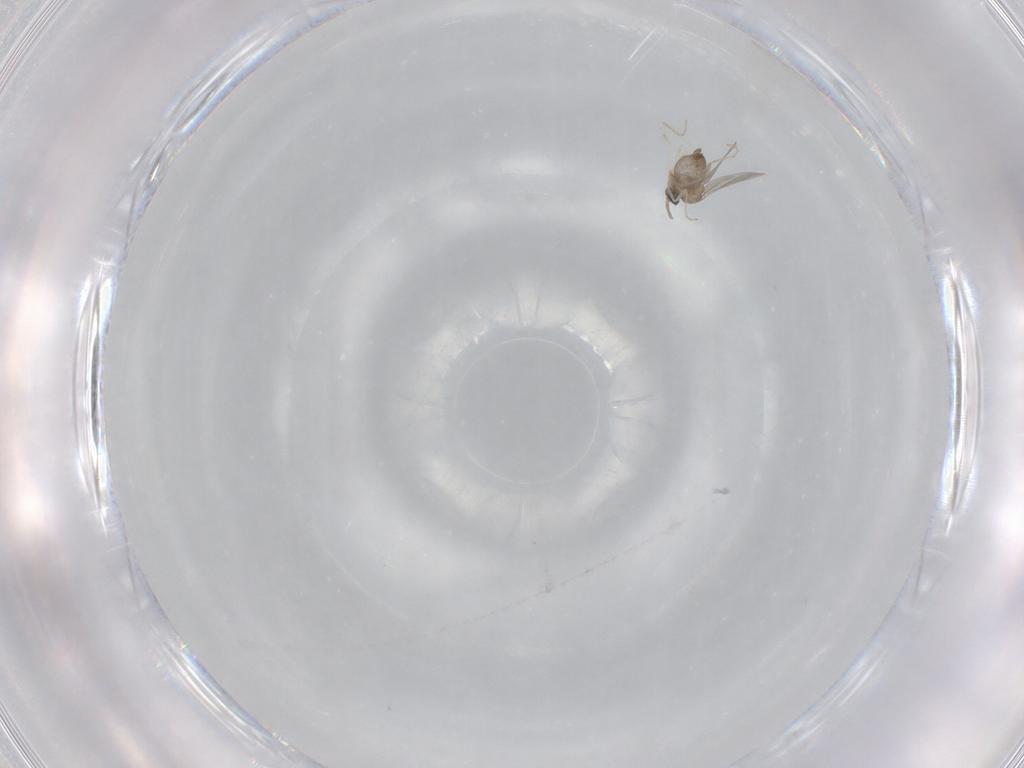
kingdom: Animalia
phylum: Arthropoda
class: Insecta
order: Diptera
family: Cecidomyiidae
